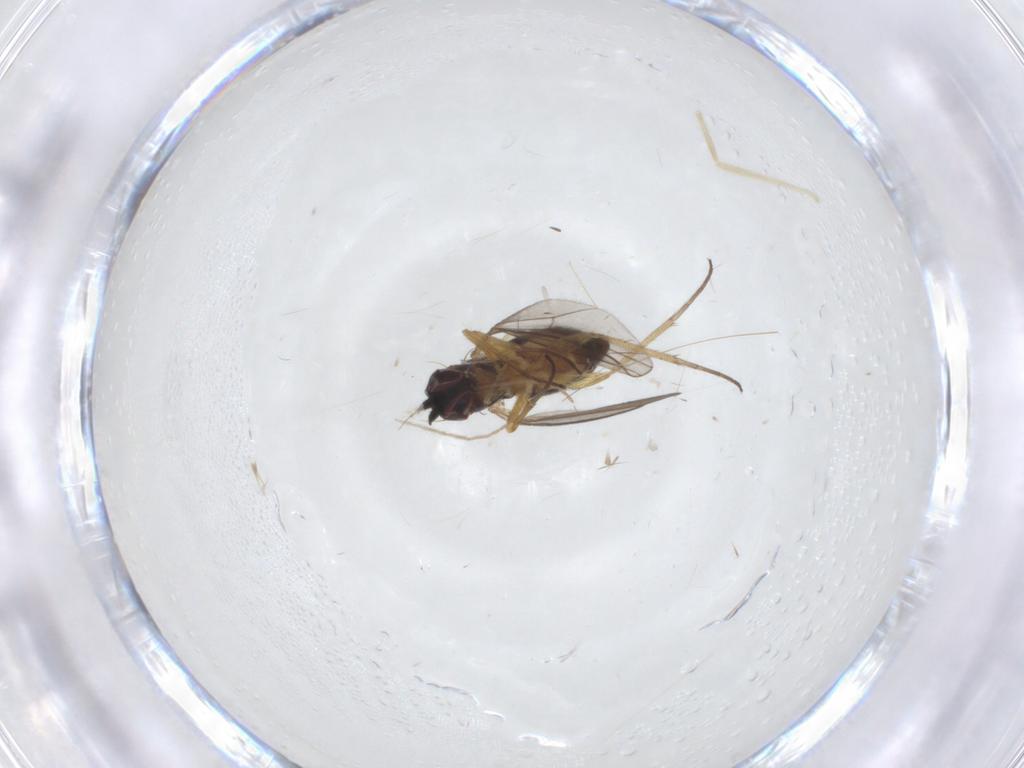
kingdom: Animalia
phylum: Arthropoda
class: Insecta
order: Diptera
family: Dolichopodidae
